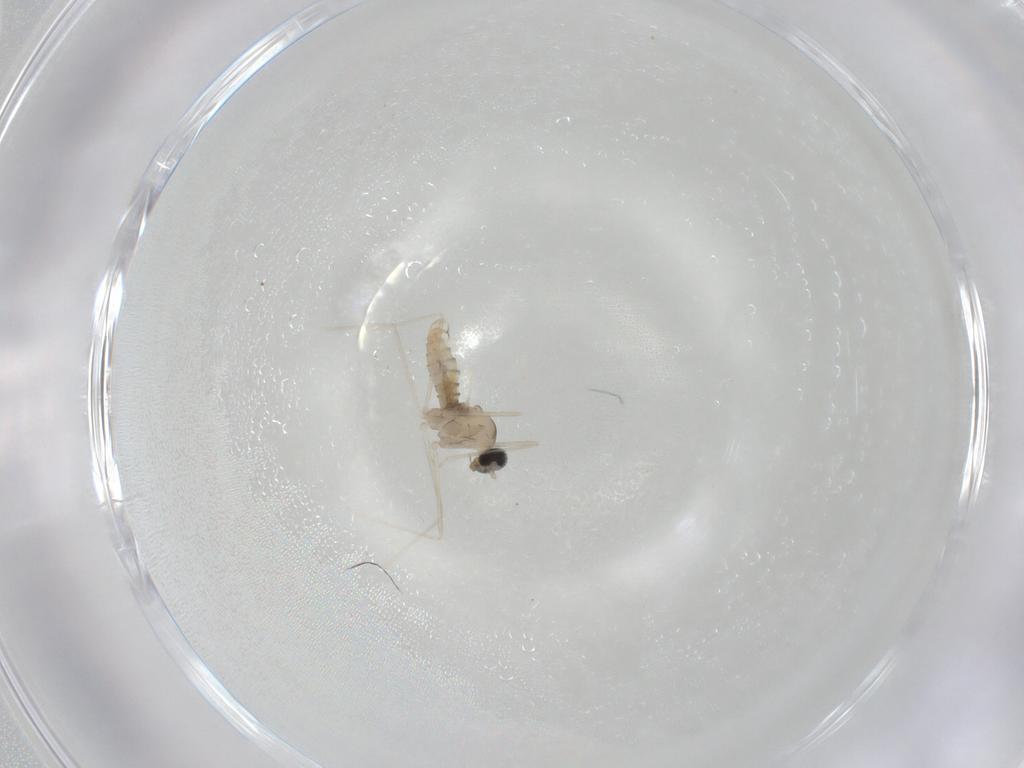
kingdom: Animalia
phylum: Arthropoda
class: Insecta
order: Diptera
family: Cecidomyiidae
